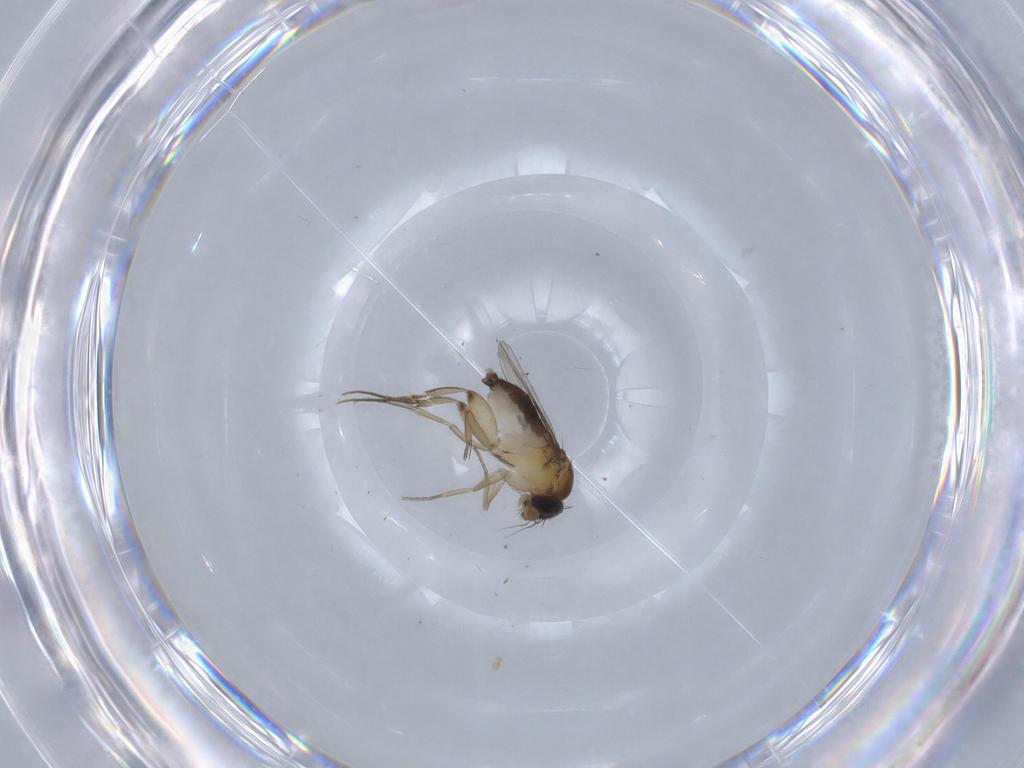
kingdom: Animalia
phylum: Arthropoda
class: Insecta
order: Diptera
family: Phoridae
